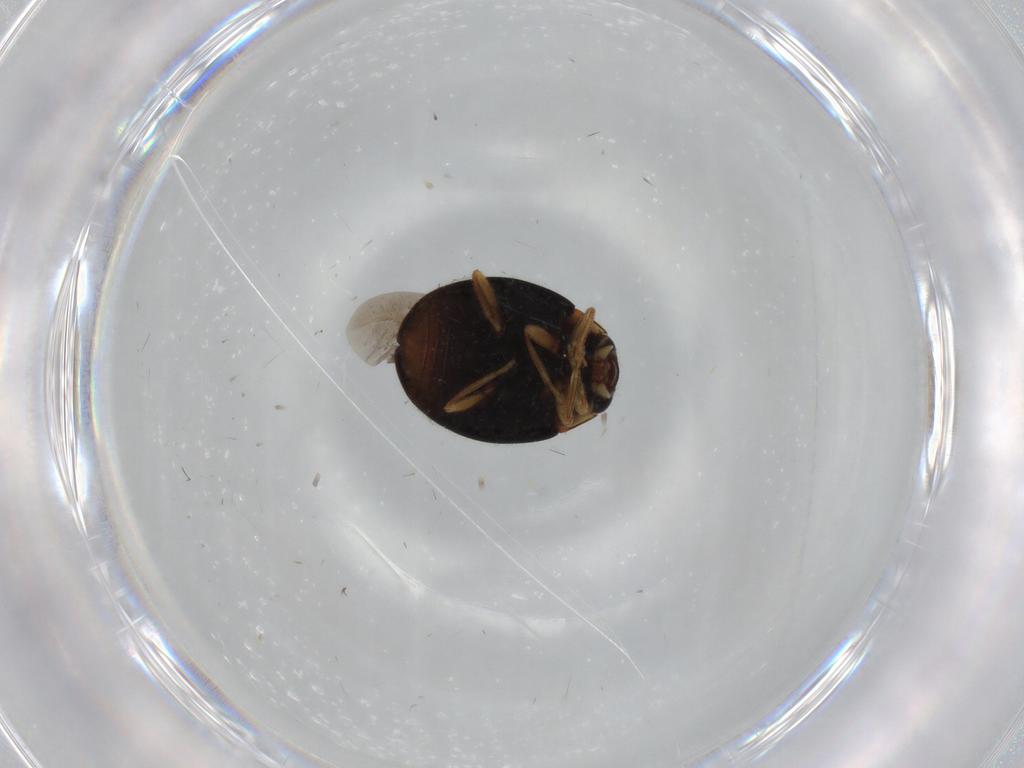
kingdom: Animalia
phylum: Arthropoda
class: Insecta
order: Coleoptera
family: Coccinellidae
